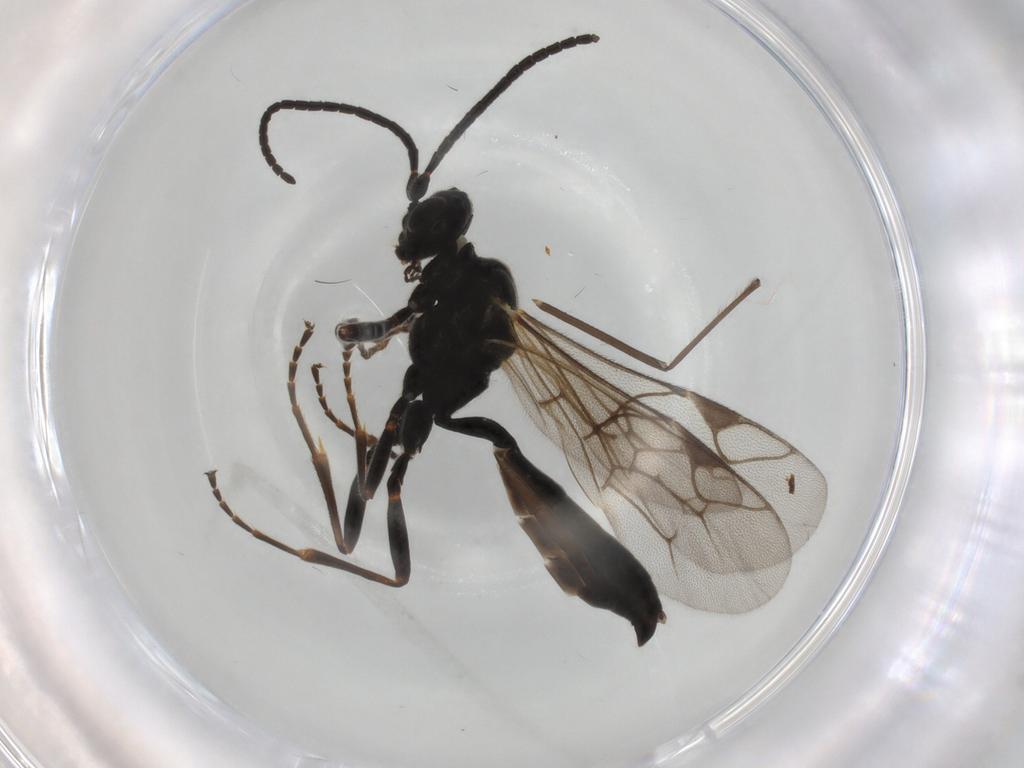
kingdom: Animalia
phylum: Arthropoda
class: Insecta
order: Hymenoptera
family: Ichneumonidae
